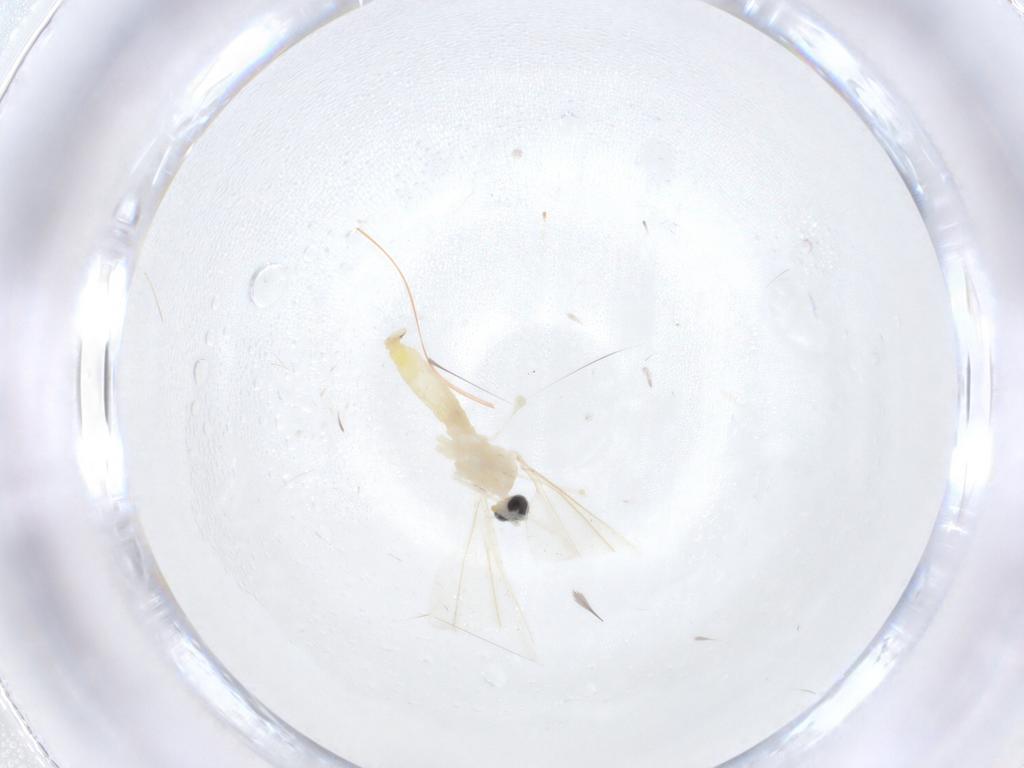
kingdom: Animalia
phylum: Arthropoda
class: Insecta
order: Diptera
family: Cecidomyiidae
